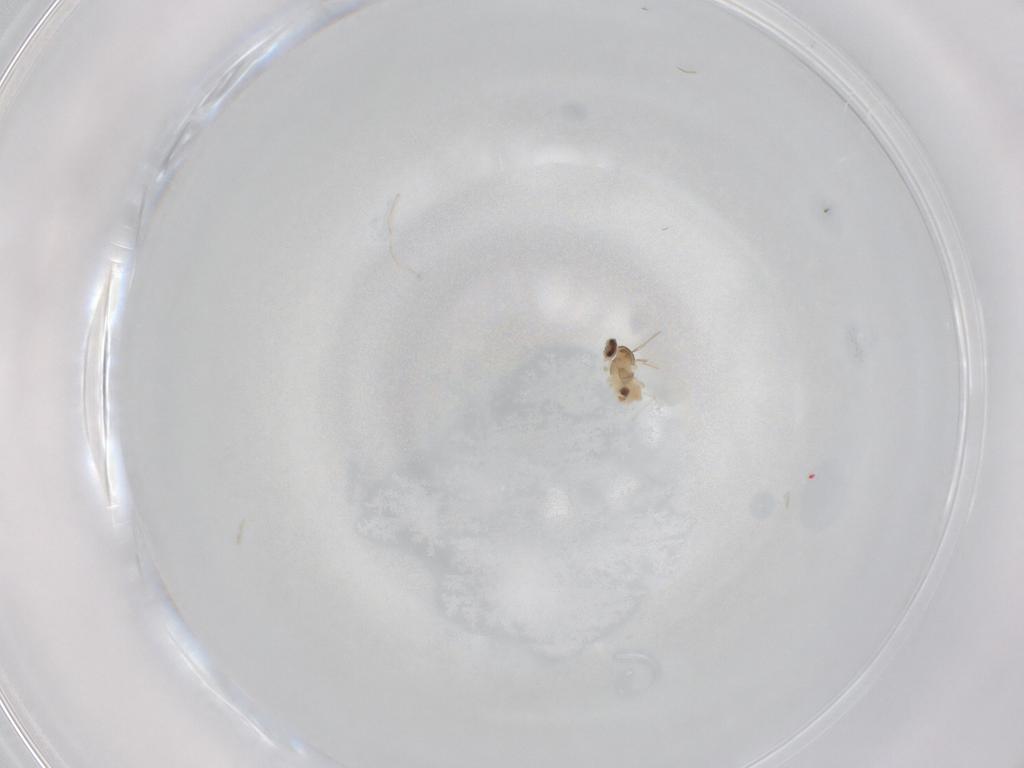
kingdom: Animalia
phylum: Arthropoda
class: Insecta
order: Diptera
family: Cecidomyiidae
